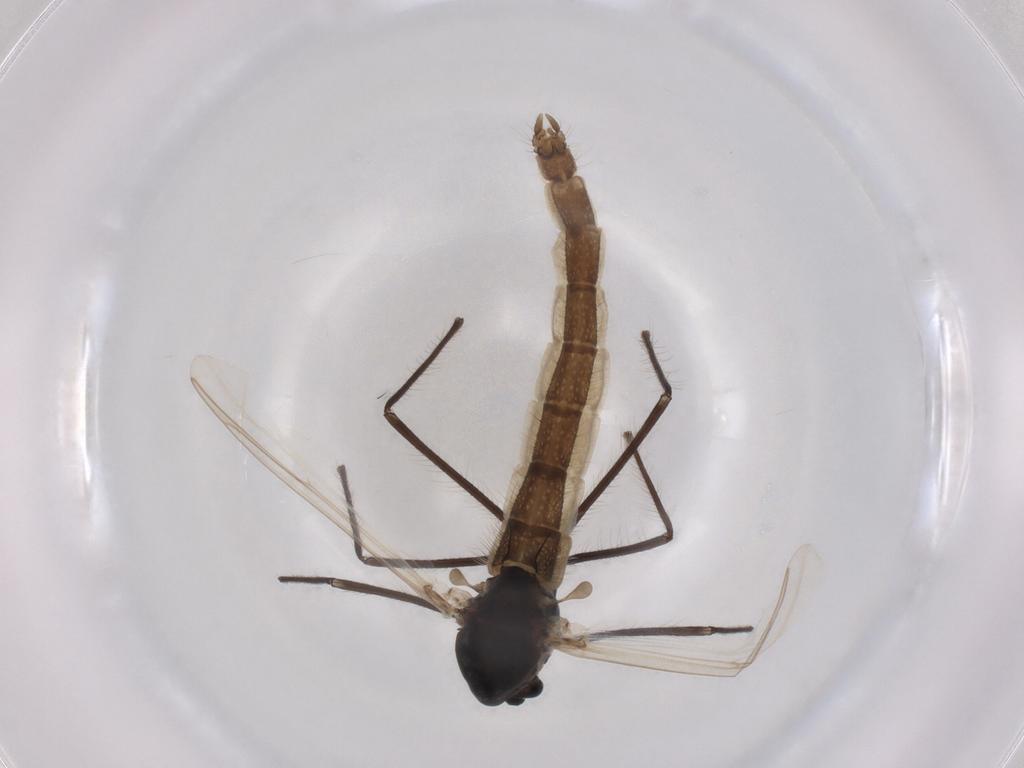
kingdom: Animalia
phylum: Arthropoda
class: Insecta
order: Diptera
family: Chironomidae
